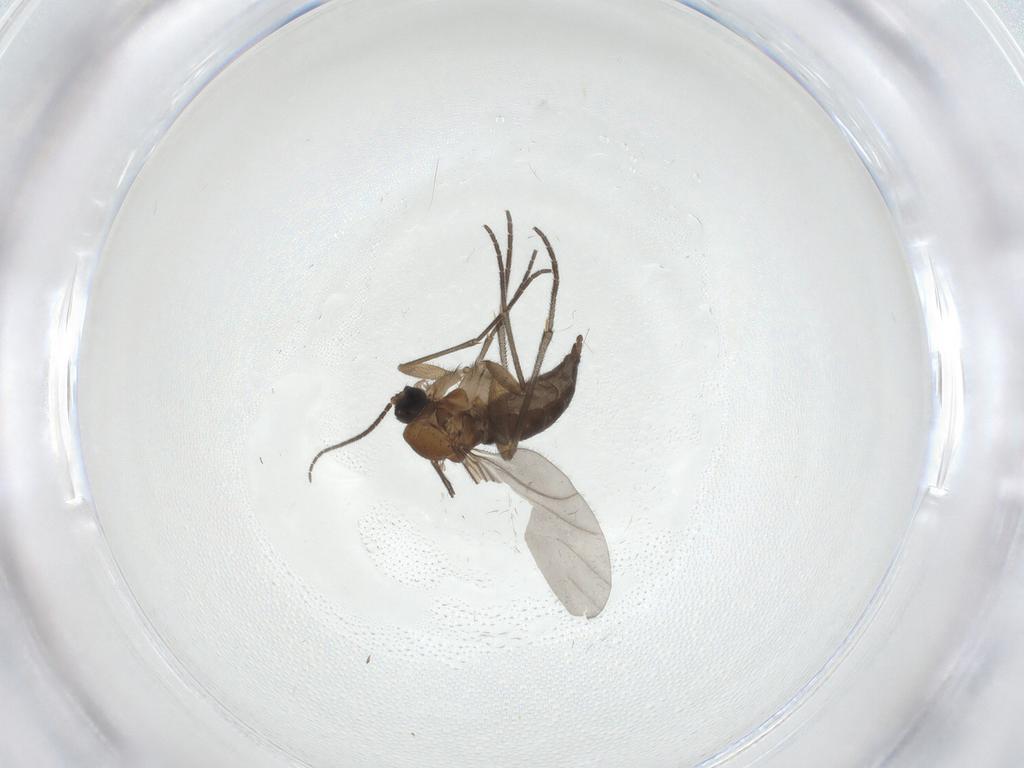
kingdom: Animalia
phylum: Arthropoda
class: Insecta
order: Diptera
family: Sciaridae
